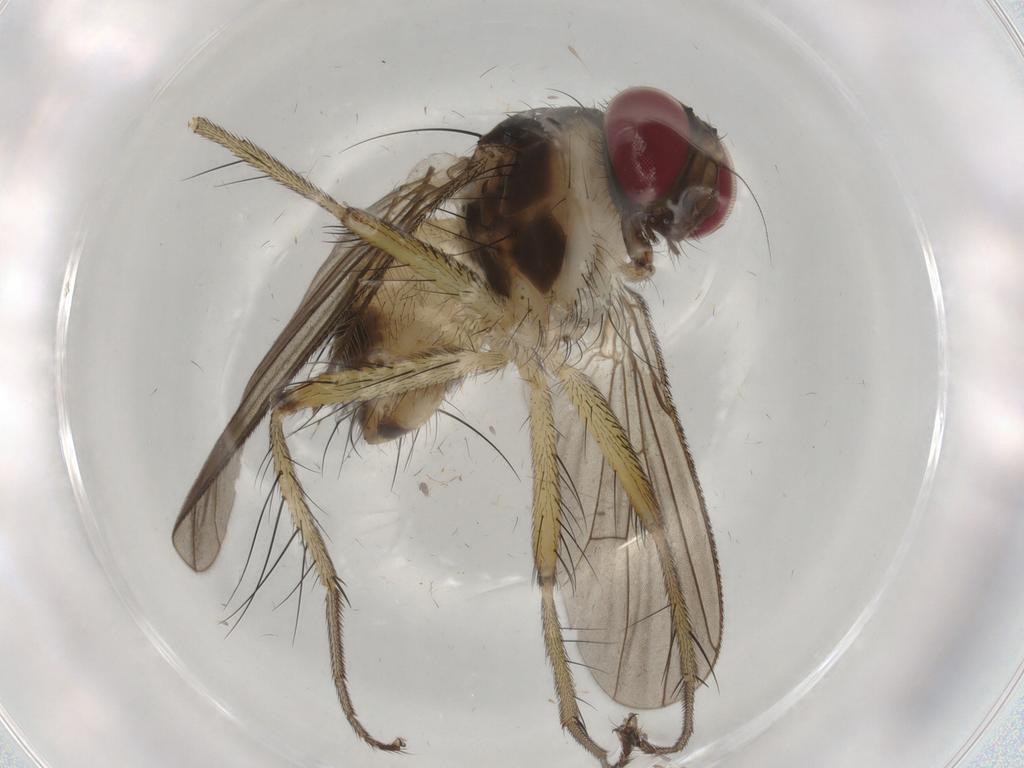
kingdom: Animalia
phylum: Arthropoda
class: Insecta
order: Diptera
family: Muscidae
